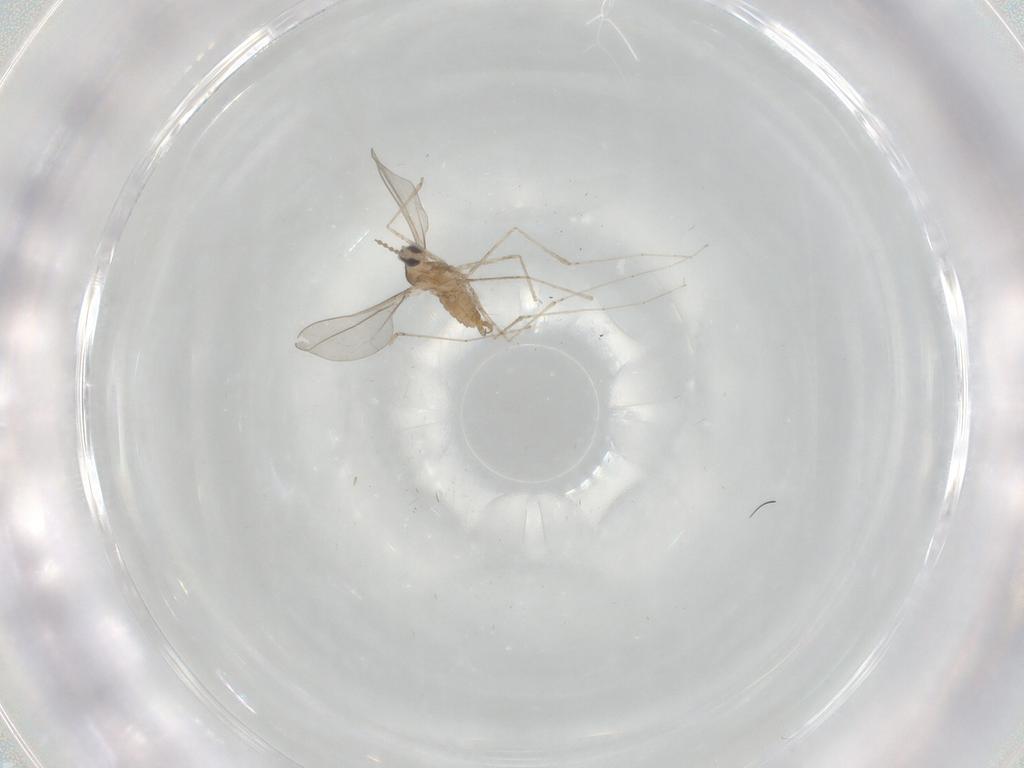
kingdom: Animalia
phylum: Arthropoda
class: Insecta
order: Diptera
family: Cecidomyiidae
